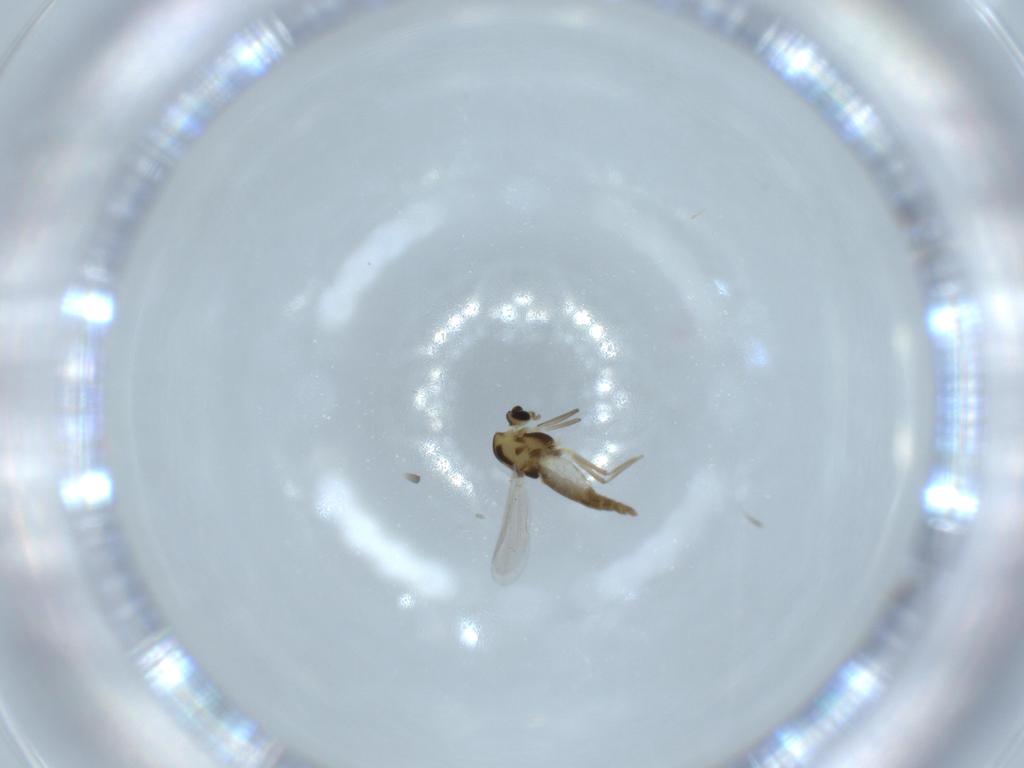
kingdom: Animalia
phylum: Arthropoda
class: Insecta
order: Diptera
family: Chironomidae
